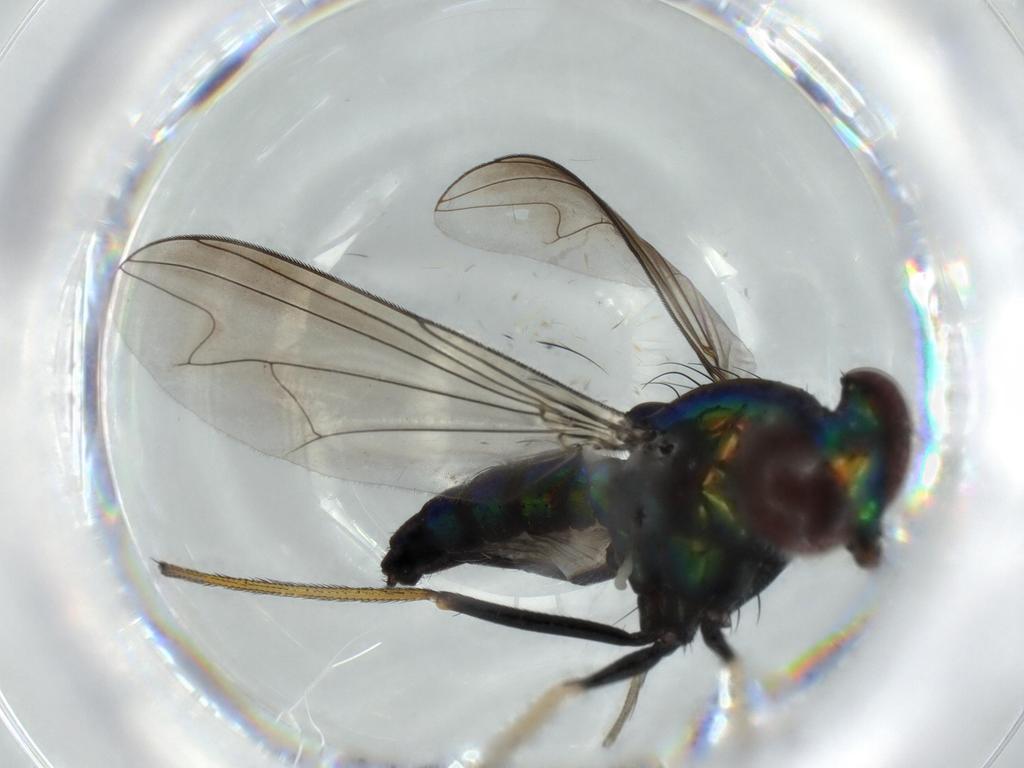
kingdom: Animalia
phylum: Arthropoda
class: Insecta
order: Diptera
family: Dolichopodidae
